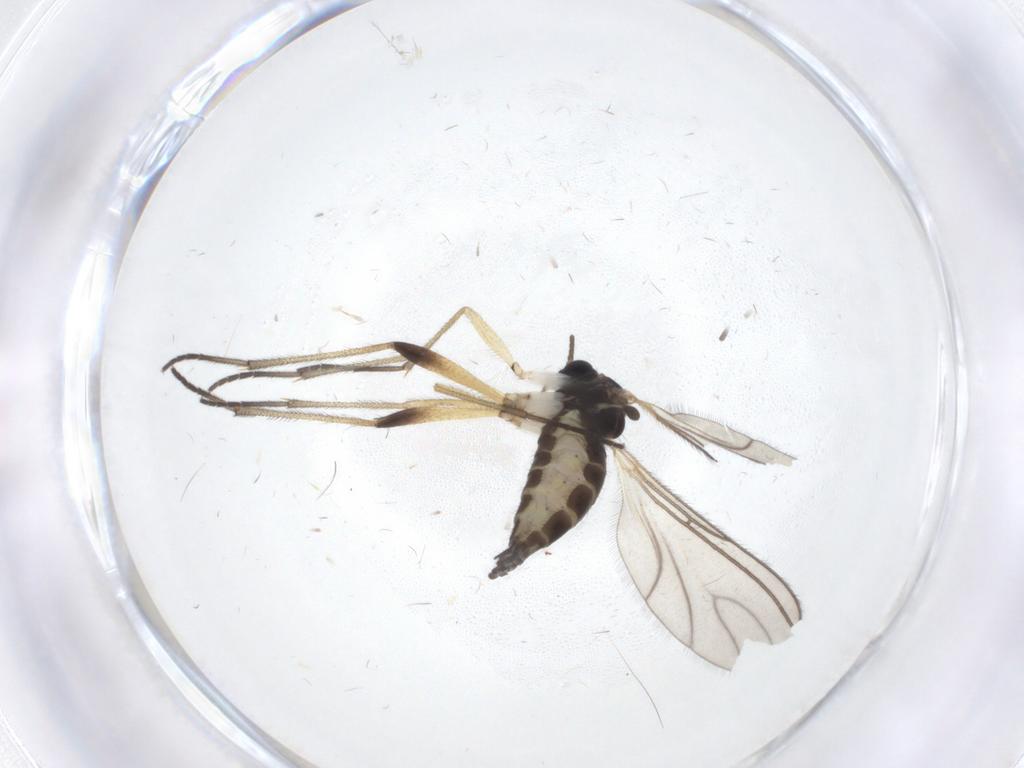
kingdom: Animalia
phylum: Arthropoda
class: Insecta
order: Diptera
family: Sciaridae
